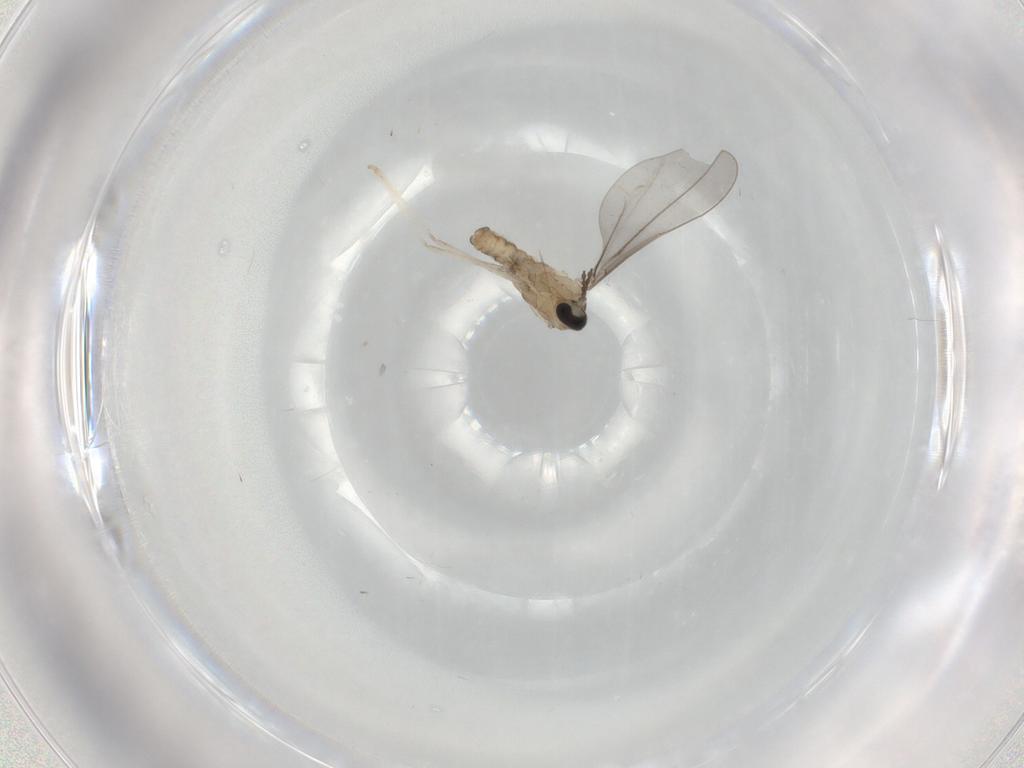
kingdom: Animalia
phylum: Arthropoda
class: Insecta
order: Diptera
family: Cecidomyiidae
